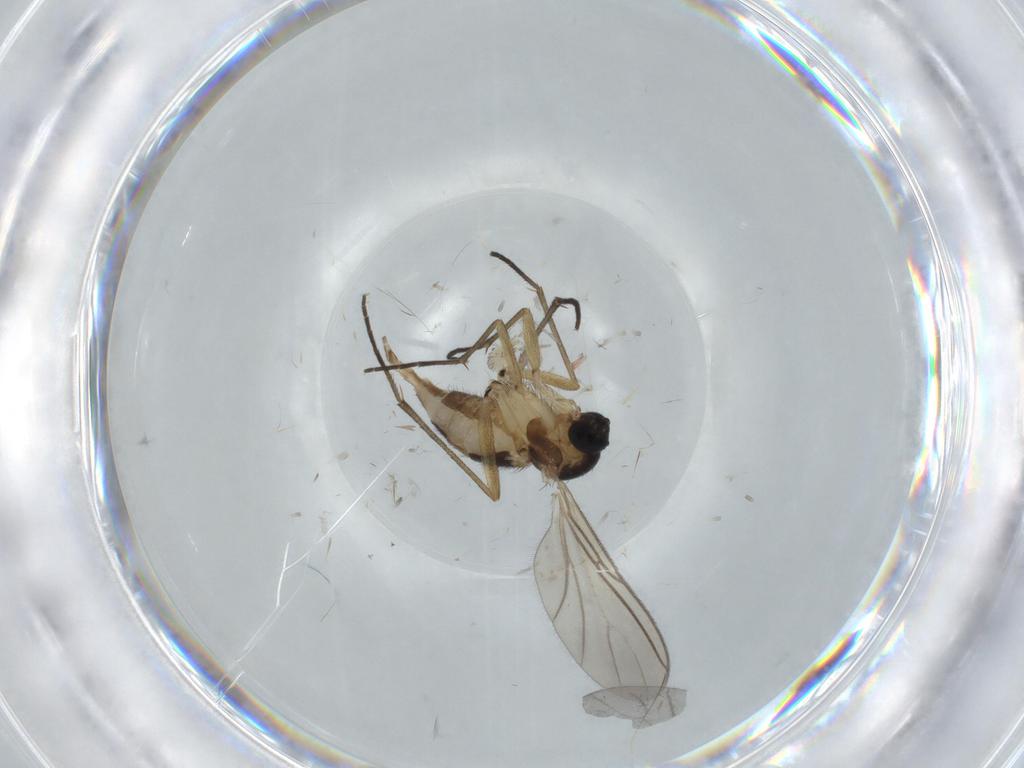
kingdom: Animalia
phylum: Arthropoda
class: Insecta
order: Diptera
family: Sciaridae
